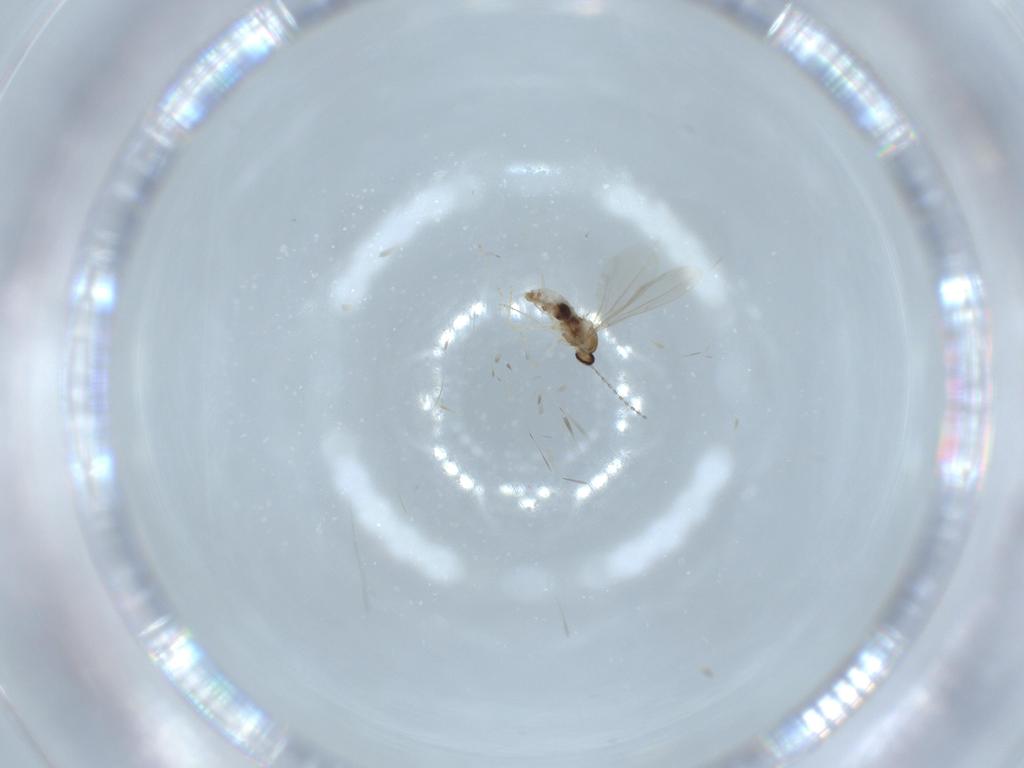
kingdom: Animalia
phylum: Arthropoda
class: Insecta
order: Diptera
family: Cecidomyiidae
